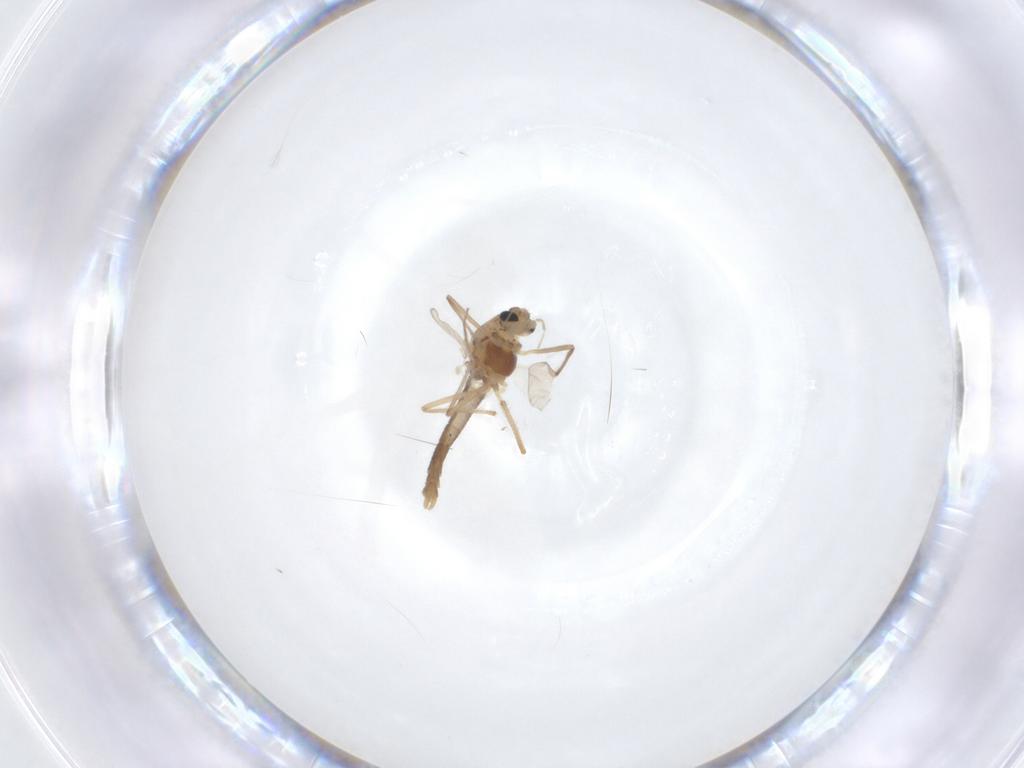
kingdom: Animalia
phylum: Arthropoda
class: Insecta
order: Diptera
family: Chironomidae
